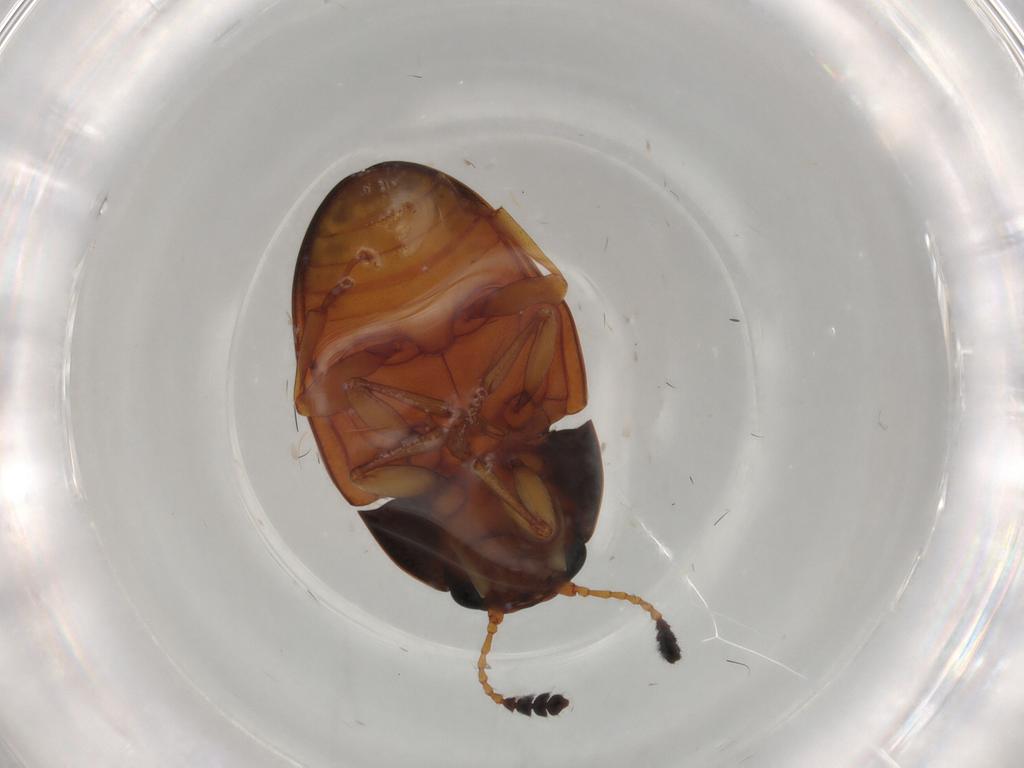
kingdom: Animalia
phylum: Arthropoda
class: Insecta
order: Coleoptera
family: Erotylidae
